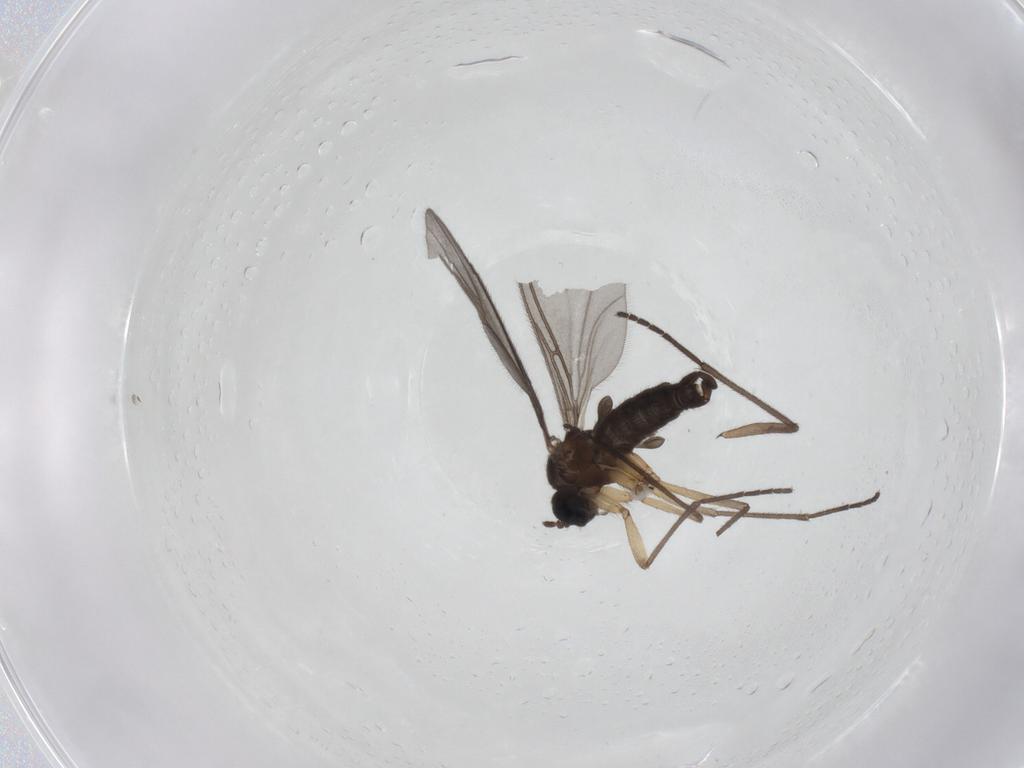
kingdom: Animalia
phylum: Arthropoda
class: Insecta
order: Diptera
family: Sciaridae
